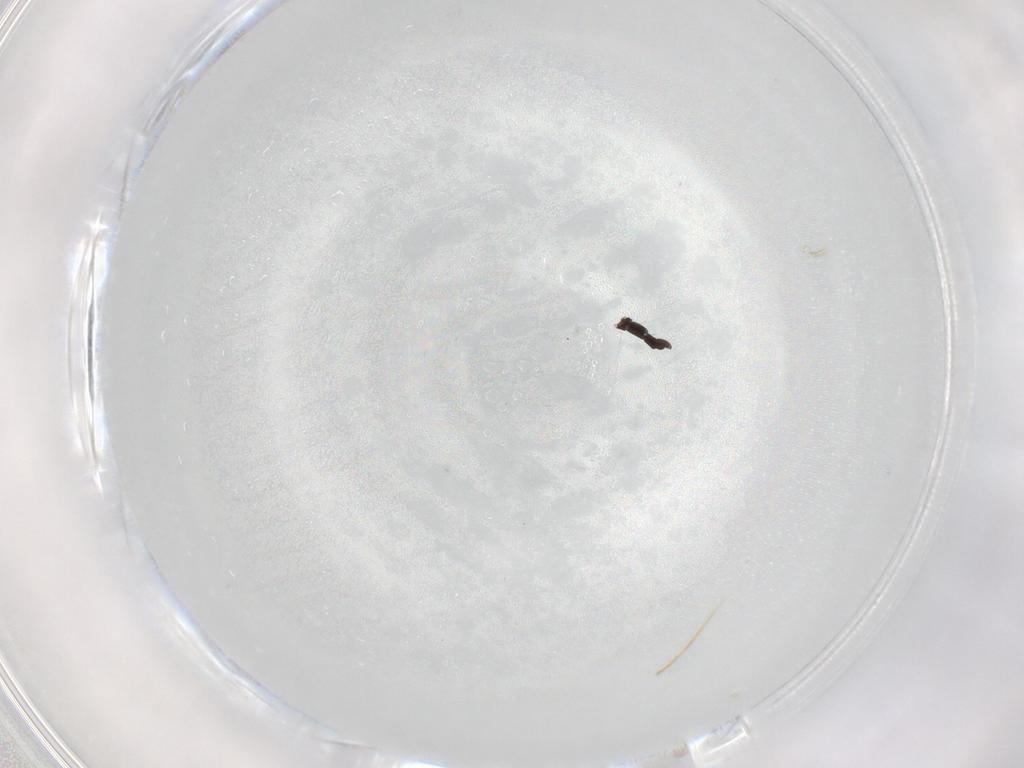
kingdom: Animalia
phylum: Arthropoda
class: Insecta
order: Diptera
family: Chironomidae
